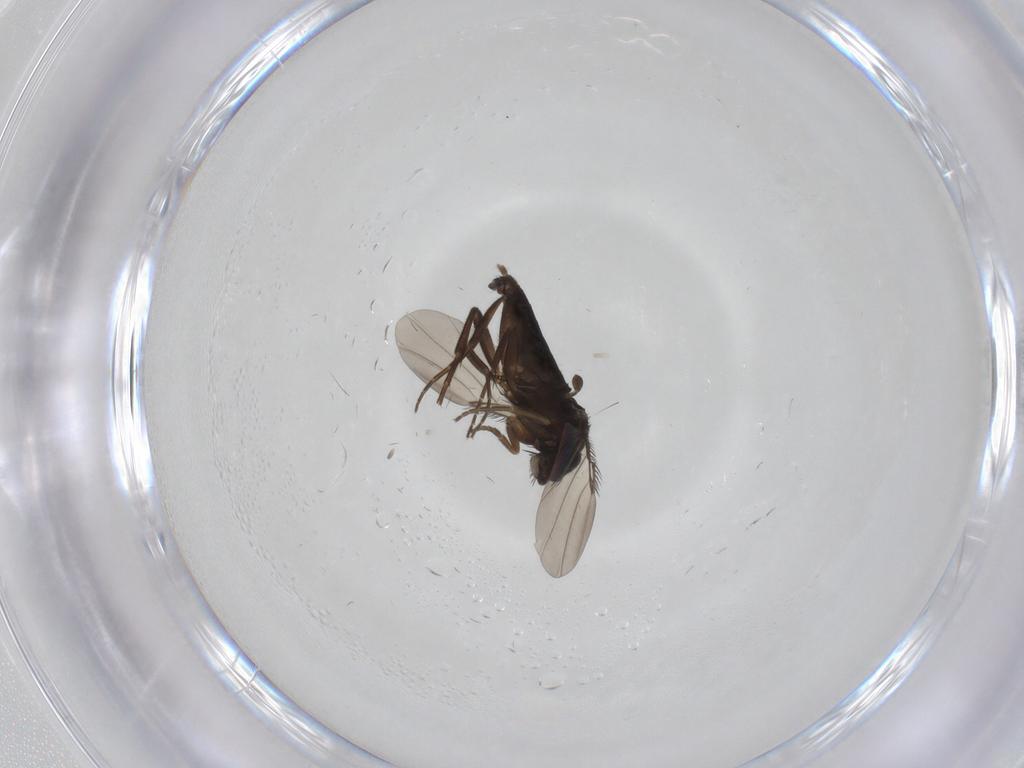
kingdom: Animalia
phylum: Arthropoda
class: Insecta
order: Diptera
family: Phoridae
